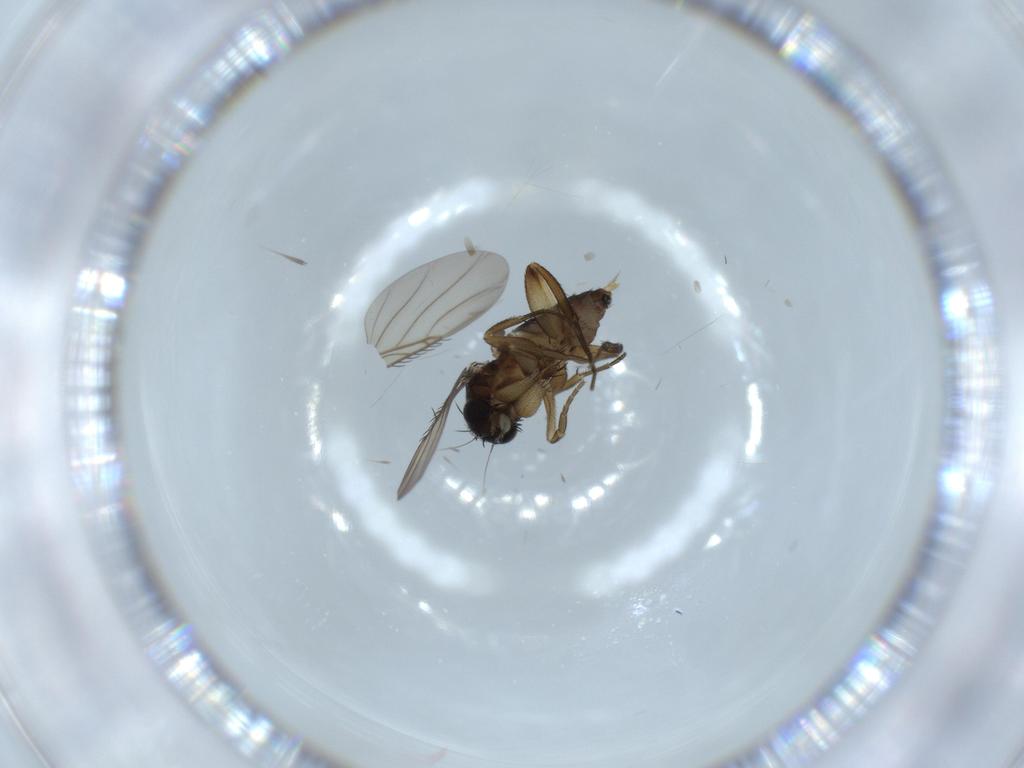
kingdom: Animalia
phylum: Arthropoda
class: Insecta
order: Diptera
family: Phoridae
